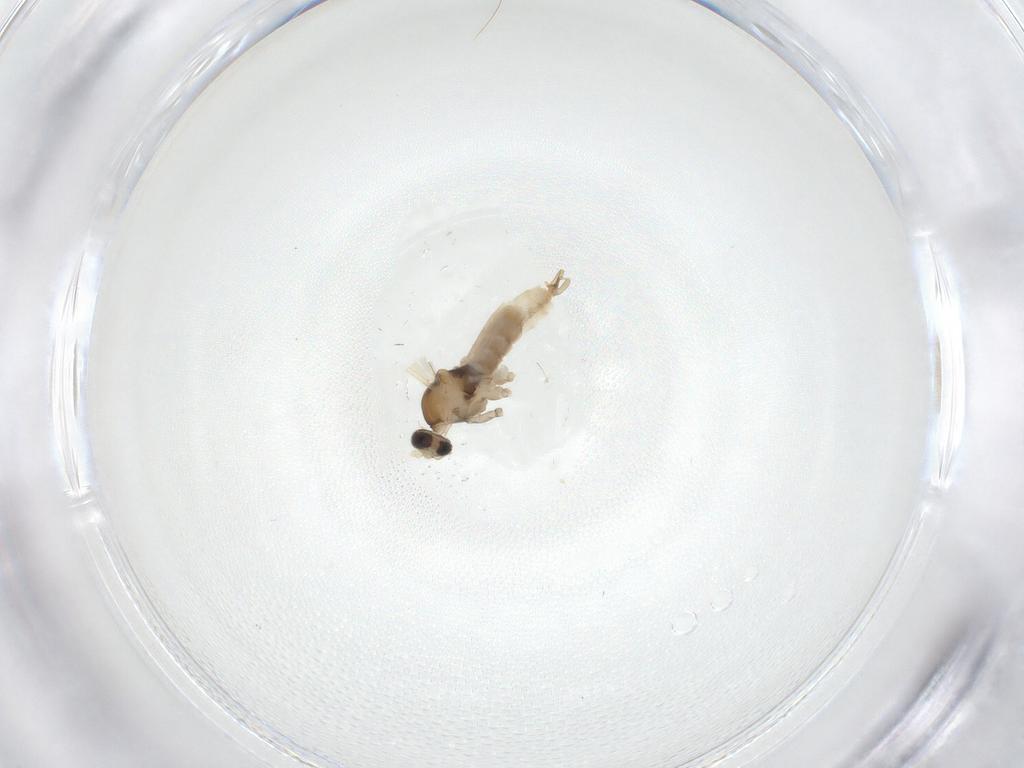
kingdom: Animalia
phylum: Arthropoda
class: Insecta
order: Diptera
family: Cecidomyiidae
